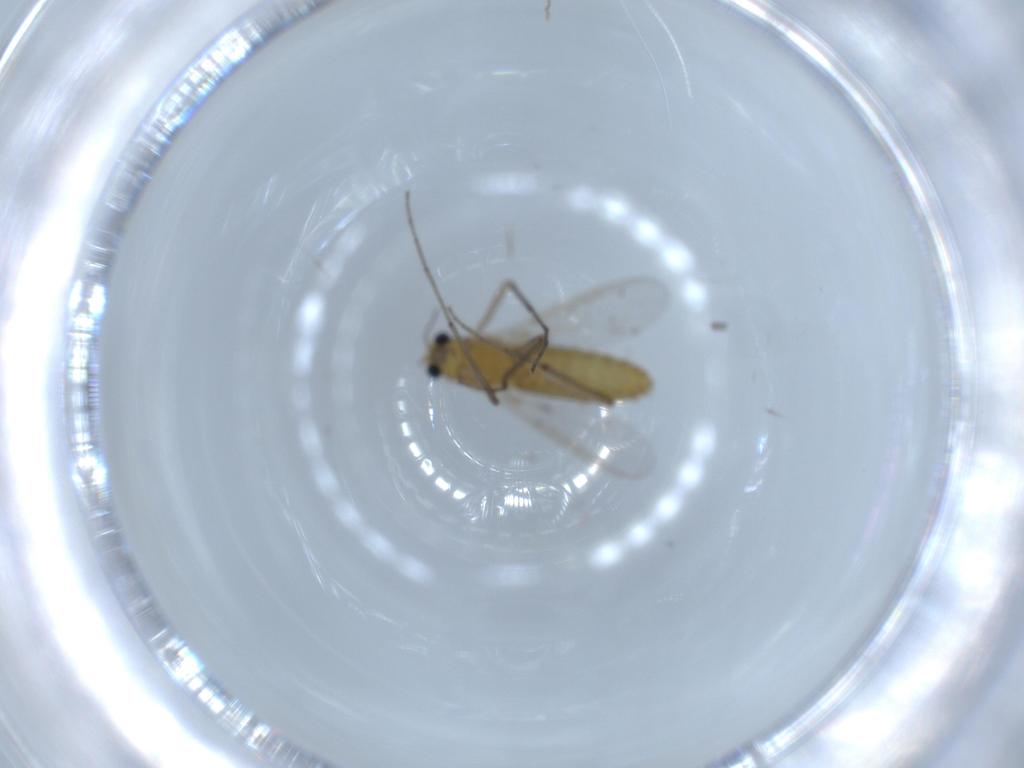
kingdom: Animalia
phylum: Arthropoda
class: Insecta
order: Diptera
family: Chironomidae
